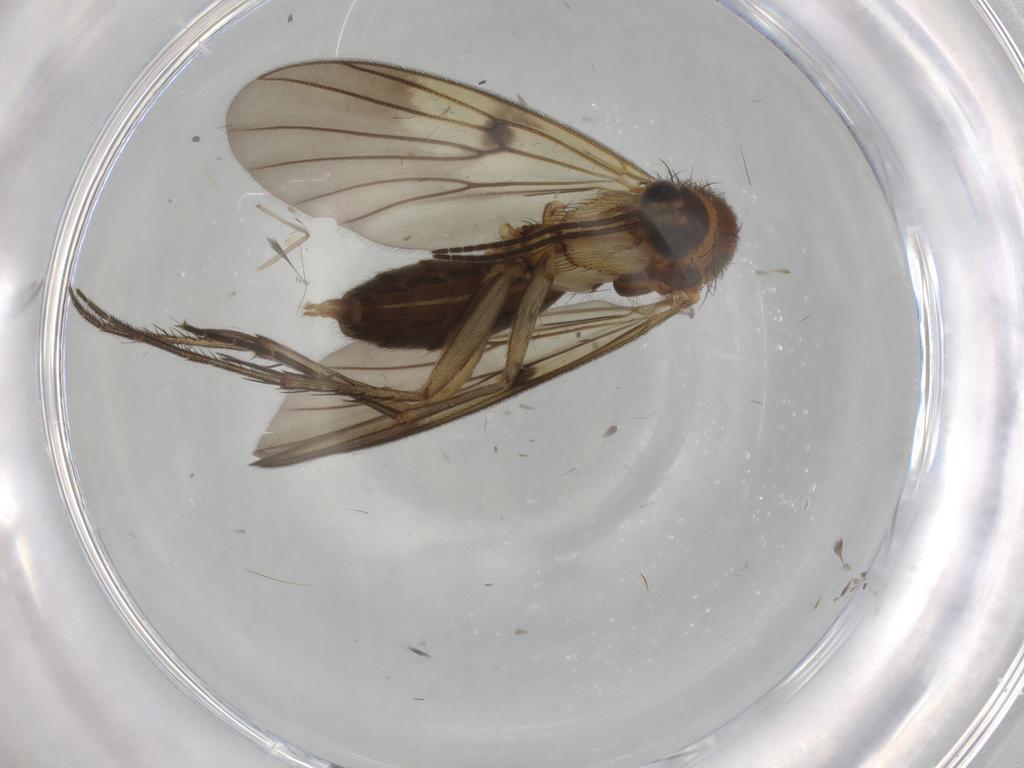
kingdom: Animalia
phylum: Arthropoda
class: Insecta
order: Diptera
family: Mycetophilidae
